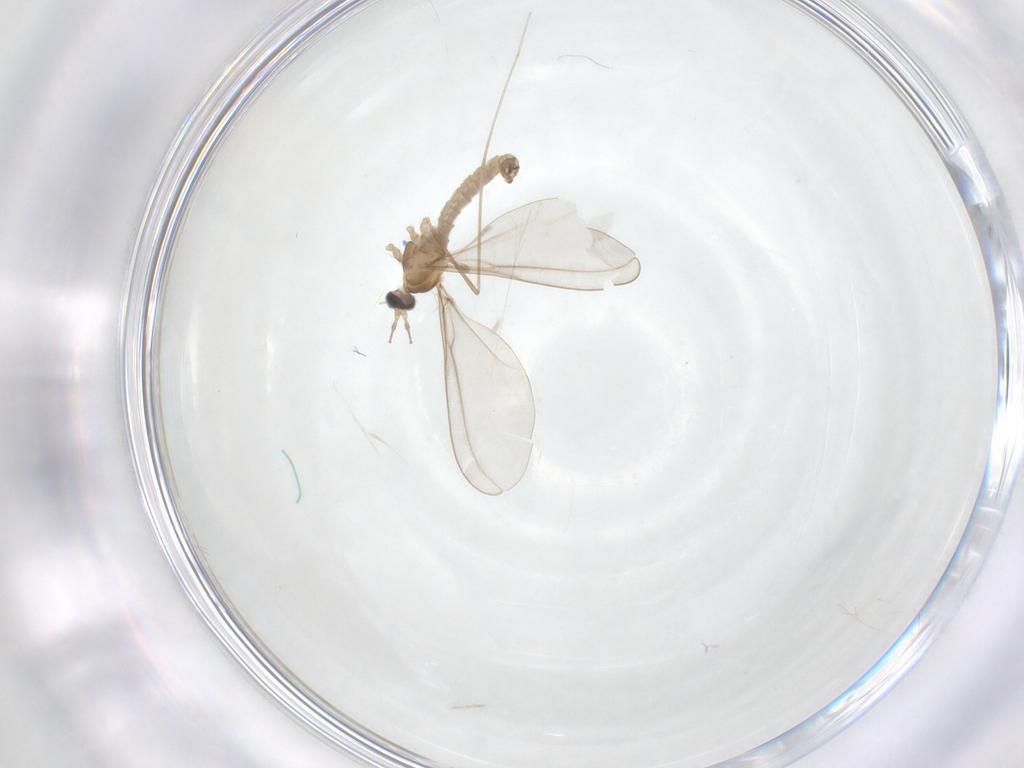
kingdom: Animalia
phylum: Arthropoda
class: Insecta
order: Diptera
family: Cecidomyiidae
